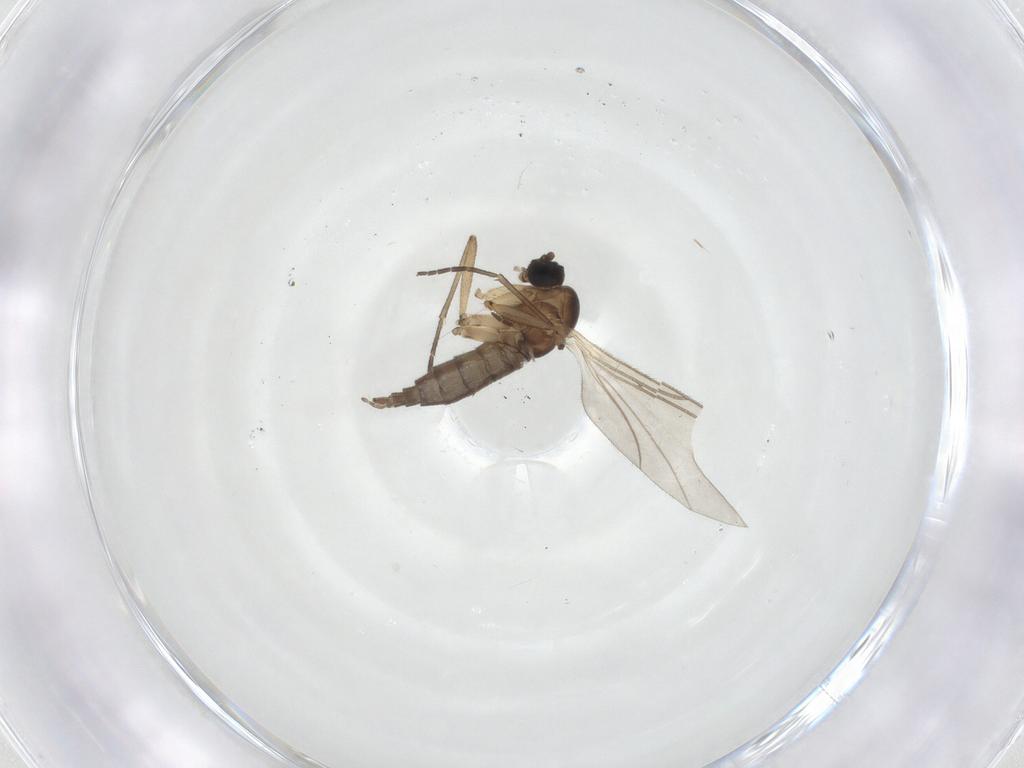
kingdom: Animalia
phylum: Arthropoda
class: Insecta
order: Diptera
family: Sciaridae
